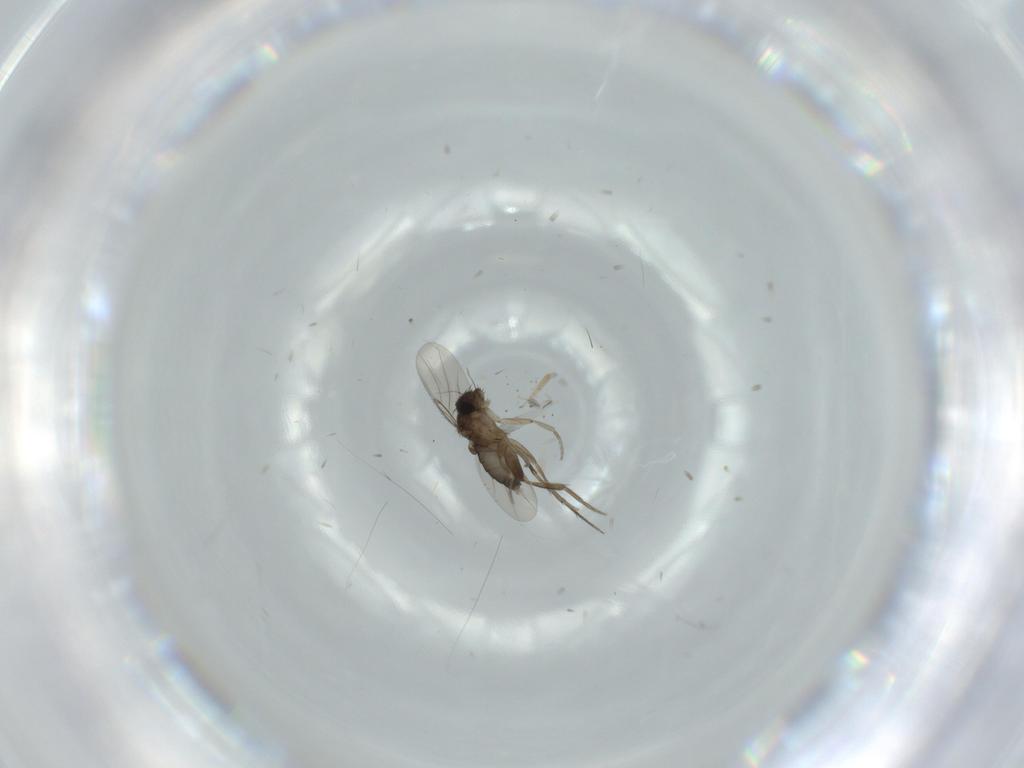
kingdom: Animalia
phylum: Arthropoda
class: Insecta
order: Diptera
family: Phoridae
